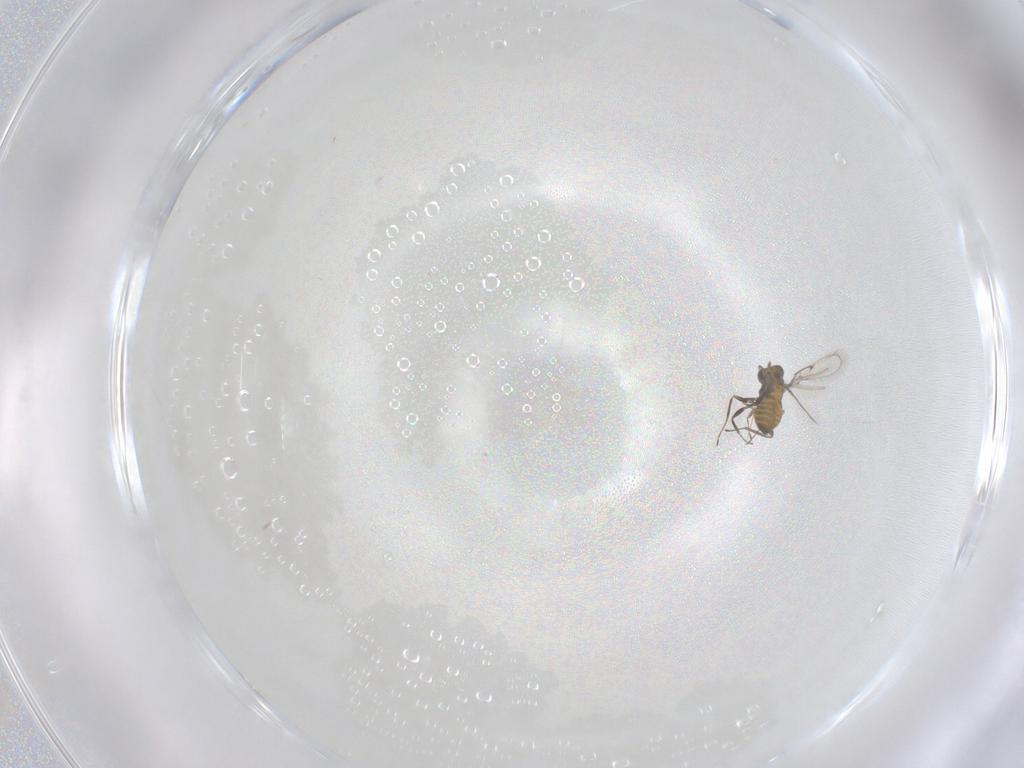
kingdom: Animalia
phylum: Arthropoda
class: Insecta
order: Hymenoptera
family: Trichogrammatidae
